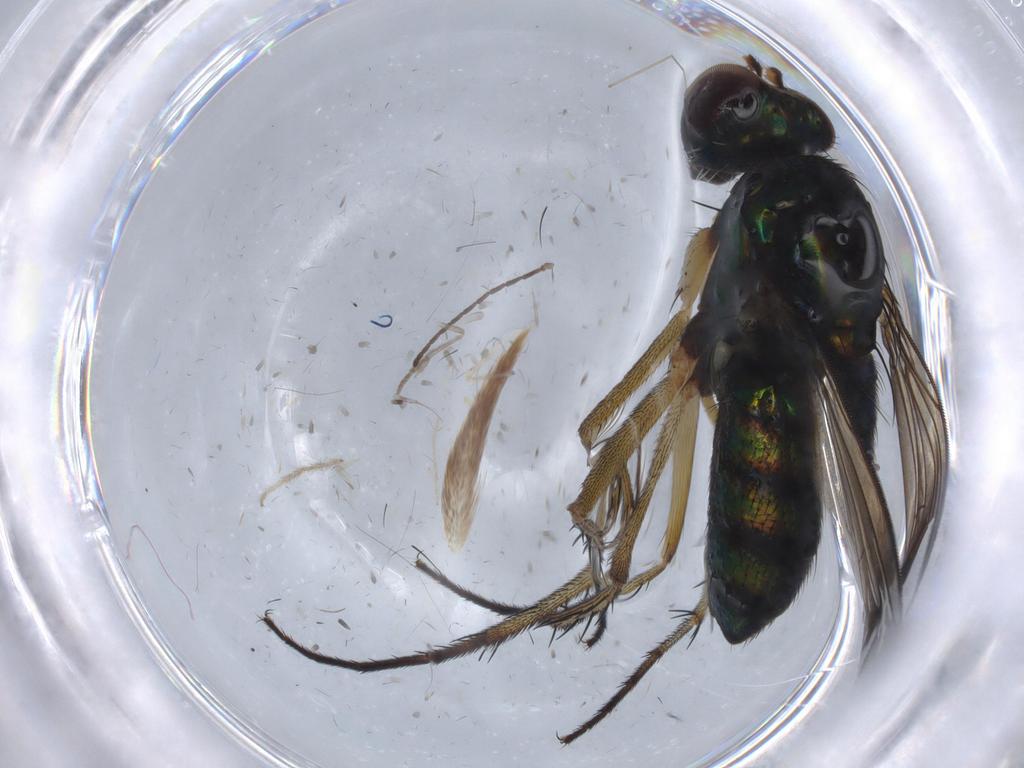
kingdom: Animalia
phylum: Arthropoda
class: Insecta
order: Diptera
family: Dolichopodidae
